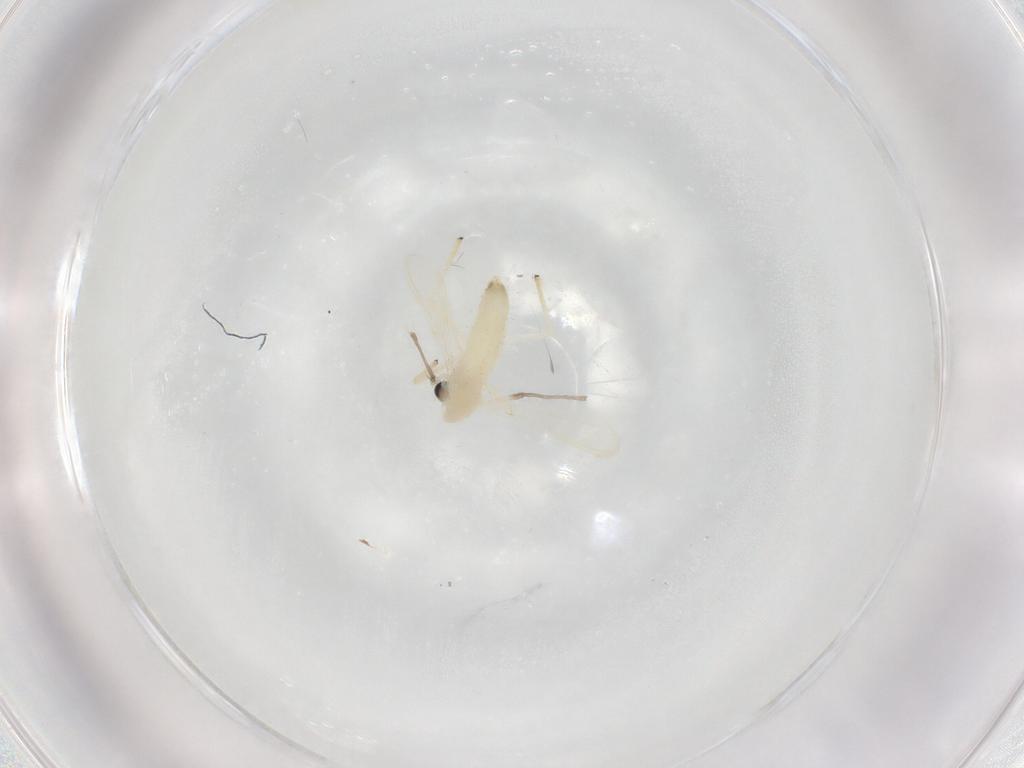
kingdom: Animalia
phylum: Arthropoda
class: Insecta
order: Diptera
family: Chironomidae
